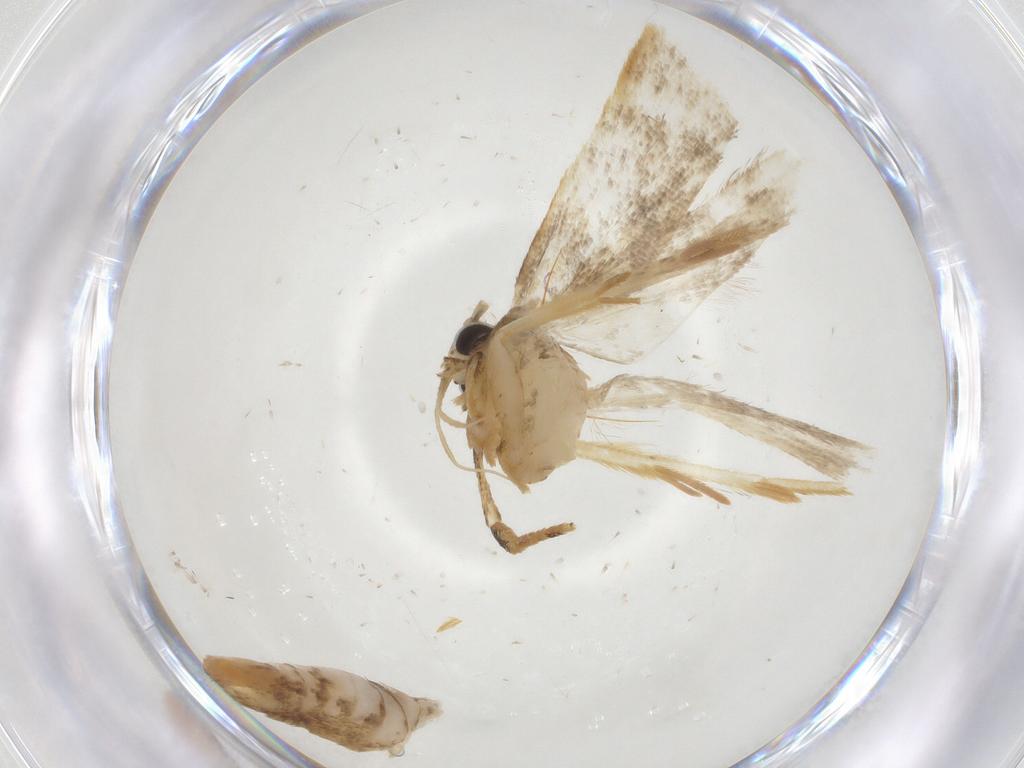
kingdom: Animalia
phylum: Arthropoda
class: Insecta
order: Lepidoptera
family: Gelechiidae
